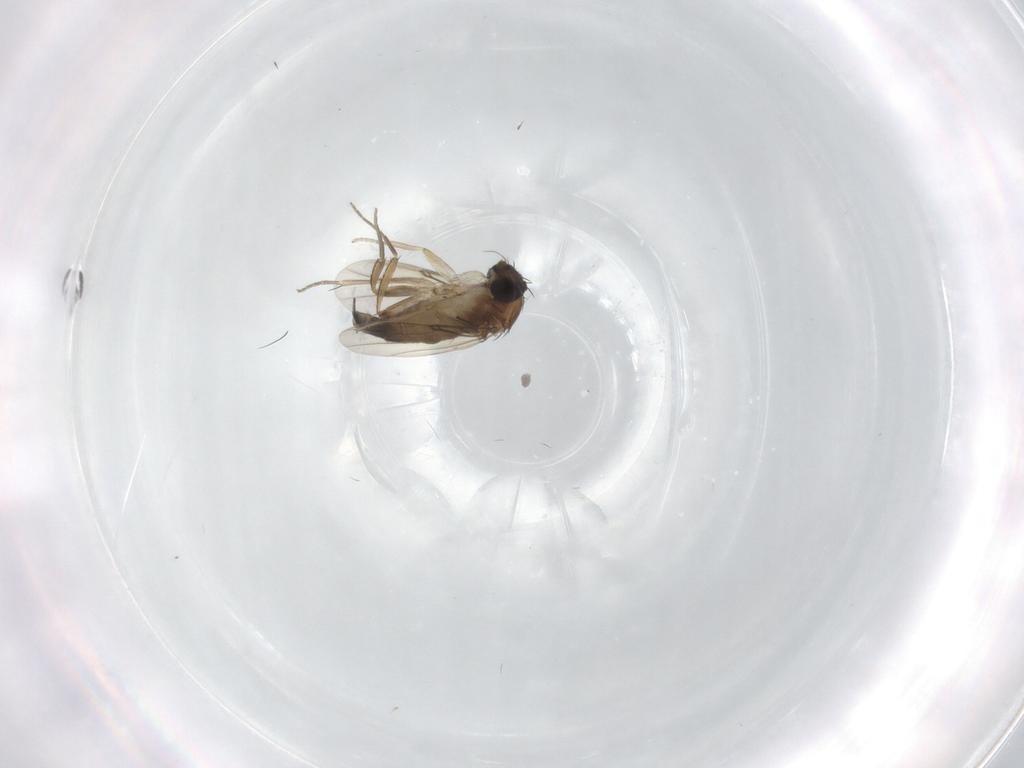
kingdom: Animalia
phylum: Arthropoda
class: Insecta
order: Diptera
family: Phoridae
